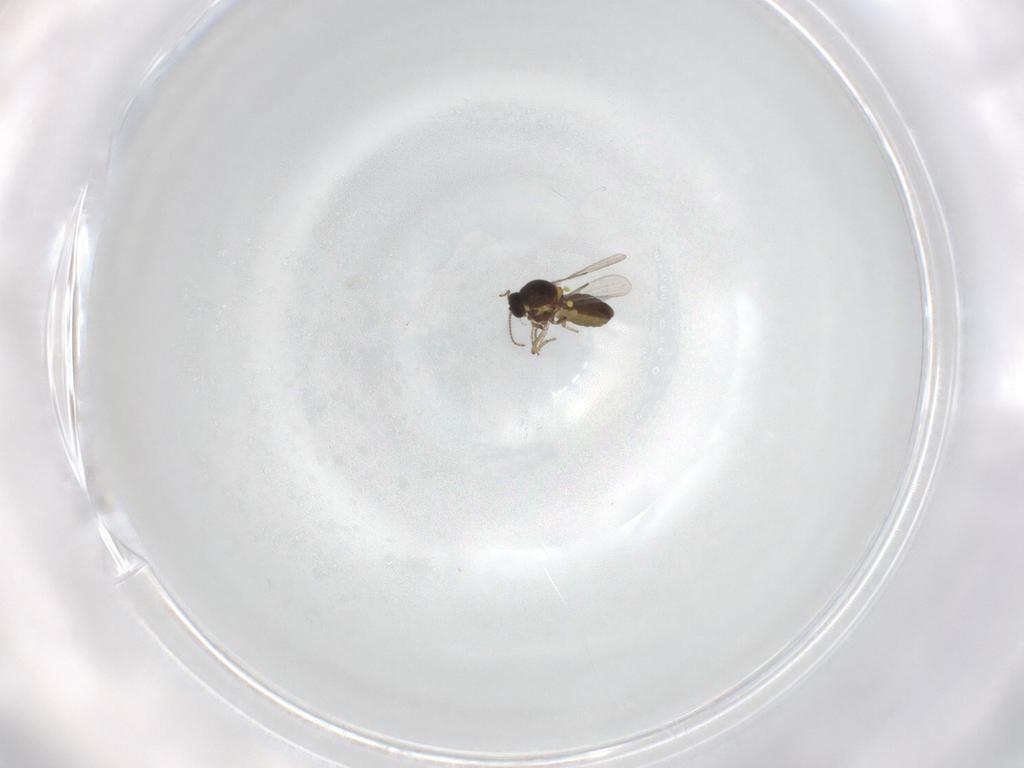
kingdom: Animalia
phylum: Arthropoda
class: Insecta
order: Diptera
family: Ceratopogonidae
